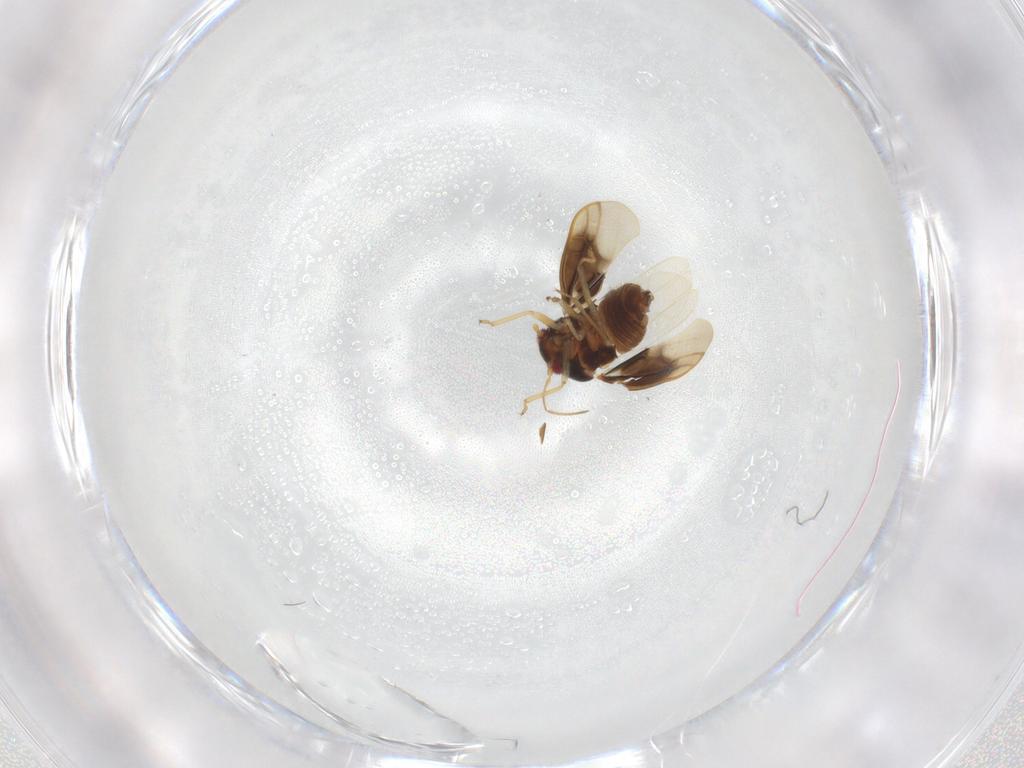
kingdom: Animalia
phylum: Arthropoda
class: Insecta
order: Hemiptera
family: Schizopteridae
